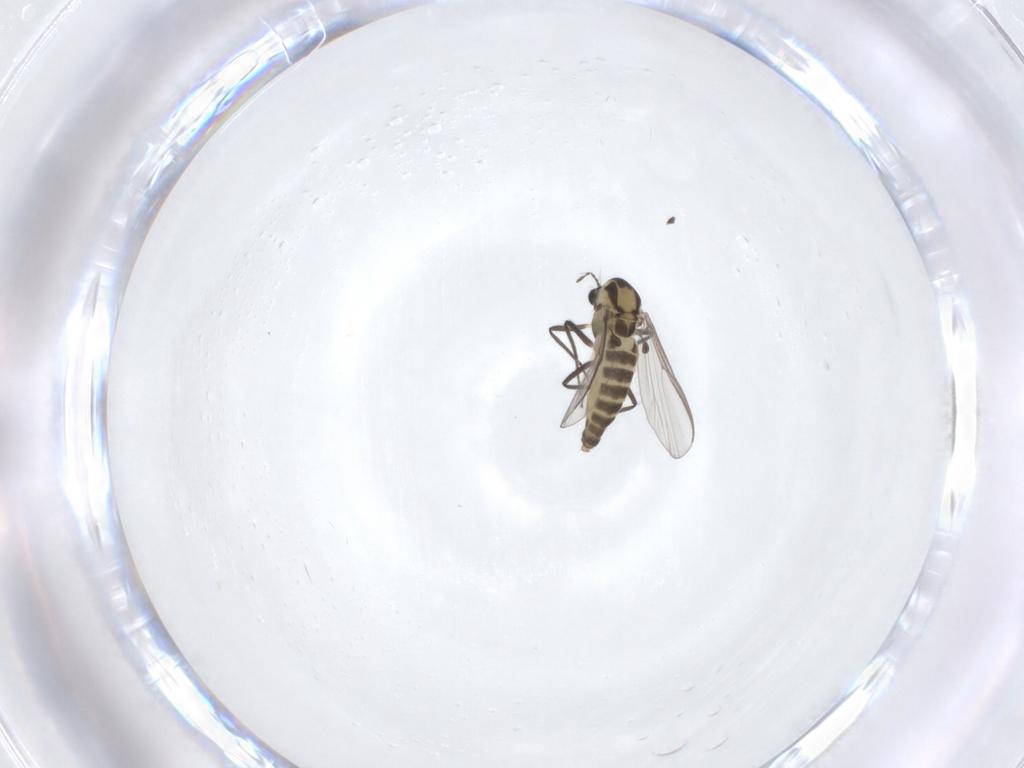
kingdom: Animalia
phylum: Arthropoda
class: Insecta
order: Diptera
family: Chironomidae
